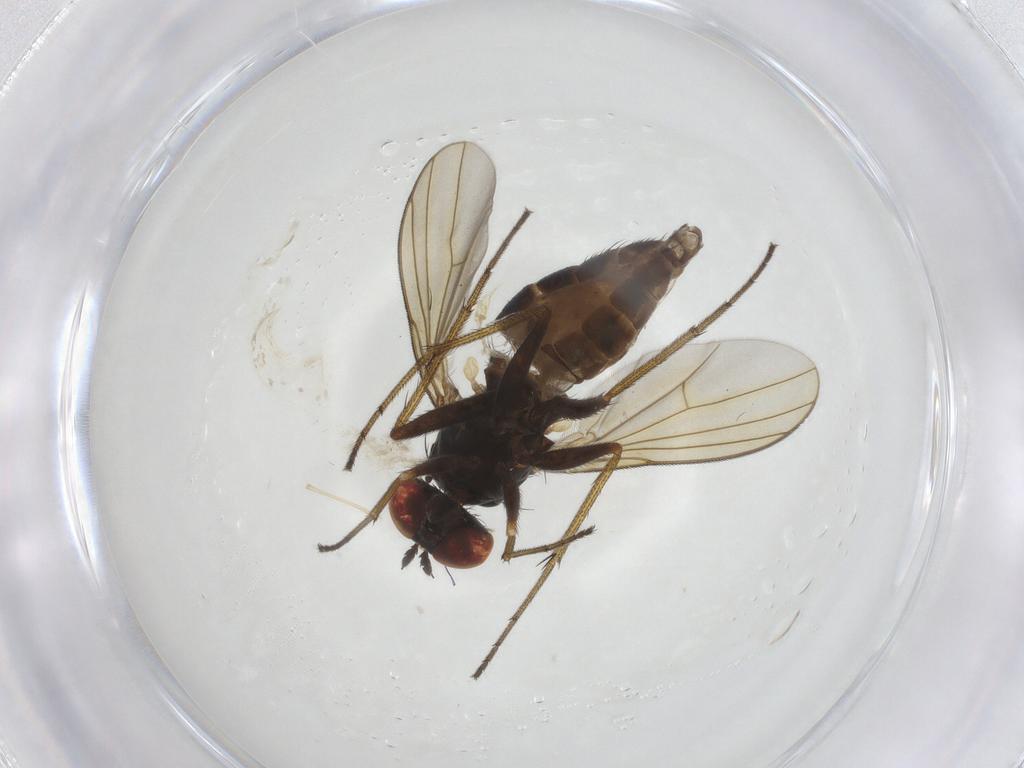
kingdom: Animalia
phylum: Arthropoda
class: Insecta
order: Diptera
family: Dolichopodidae
